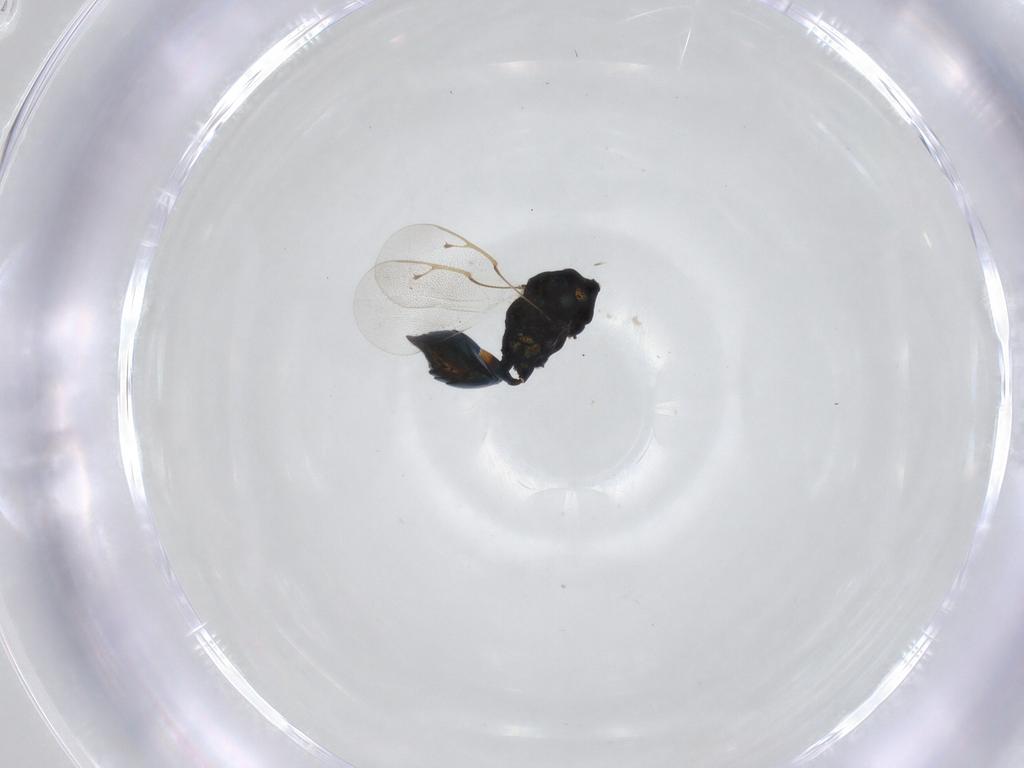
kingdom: Animalia
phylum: Arthropoda
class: Insecta
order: Hymenoptera
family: Pteromalidae
